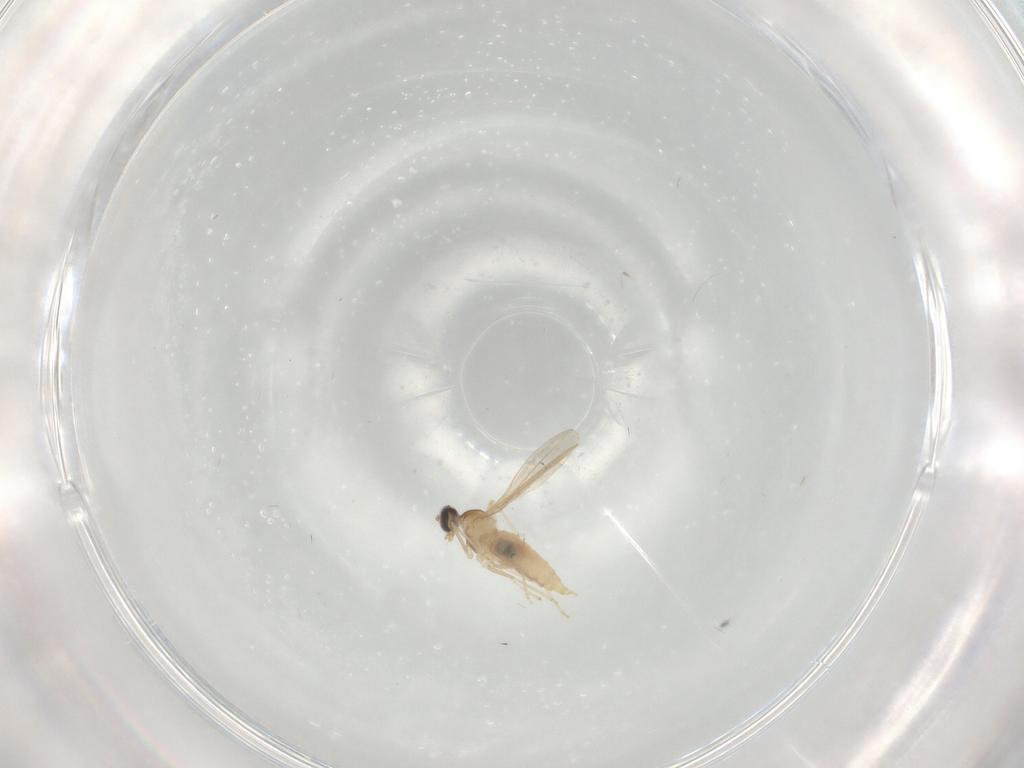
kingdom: Animalia
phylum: Arthropoda
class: Insecta
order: Diptera
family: Cecidomyiidae
